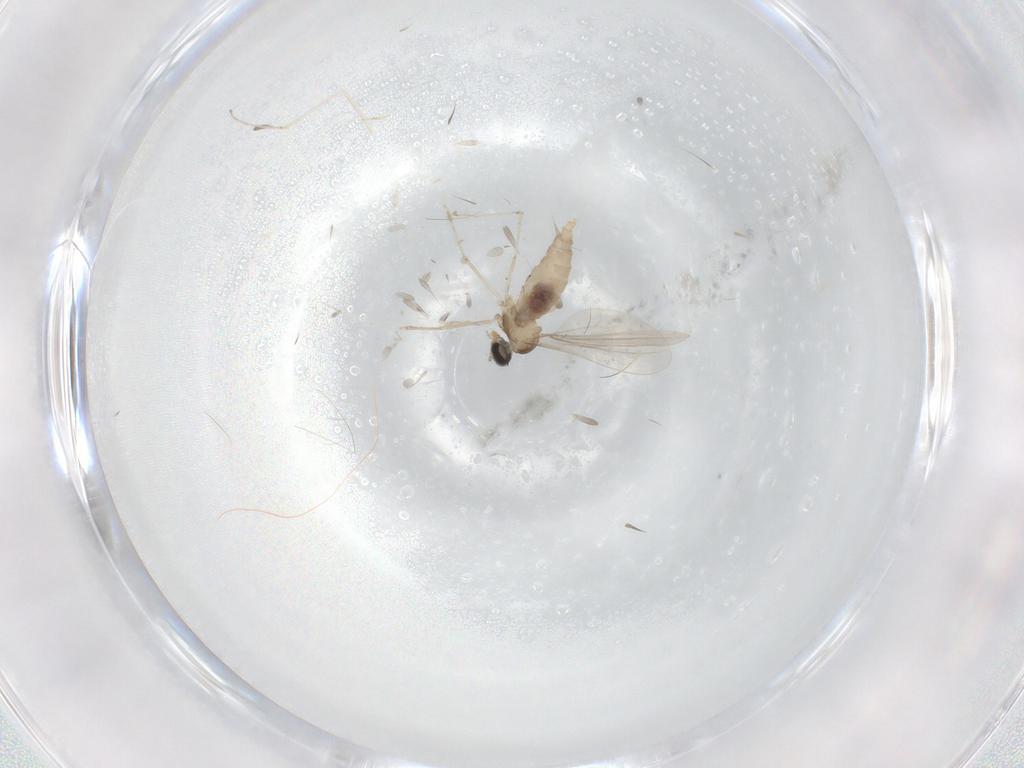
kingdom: Animalia
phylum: Arthropoda
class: Insecta
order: Diptera
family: Cecidomyiidae
